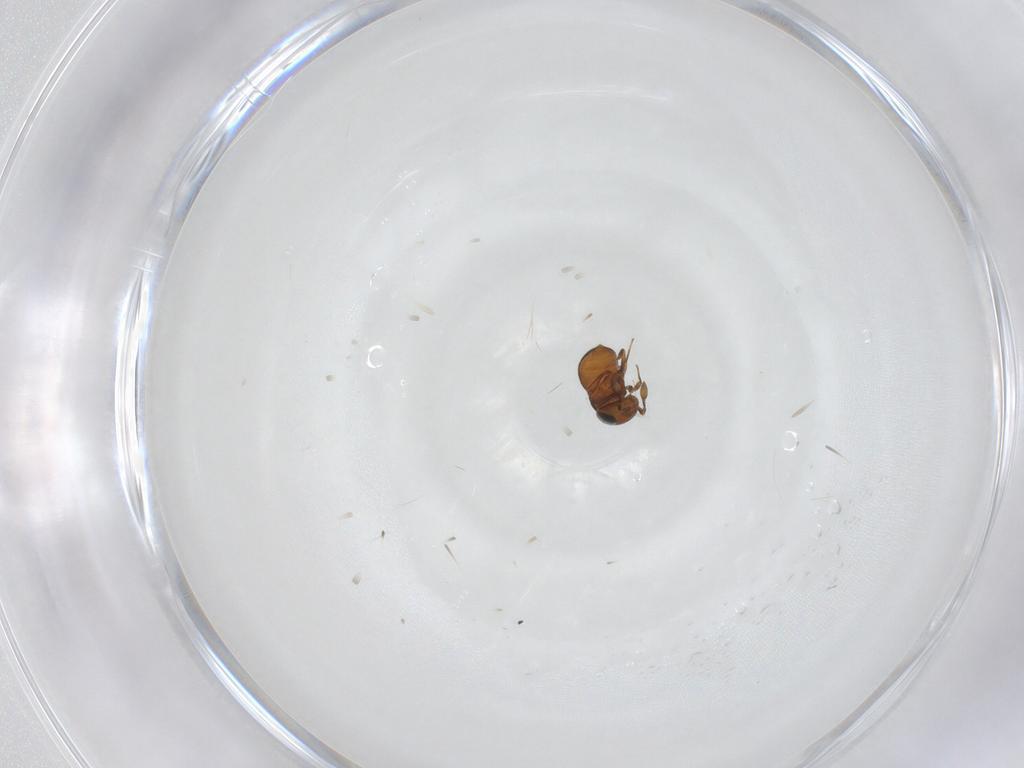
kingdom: Animalia
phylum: Arthropoda
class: Insecta
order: Hymenoptera
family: Scelionidae
